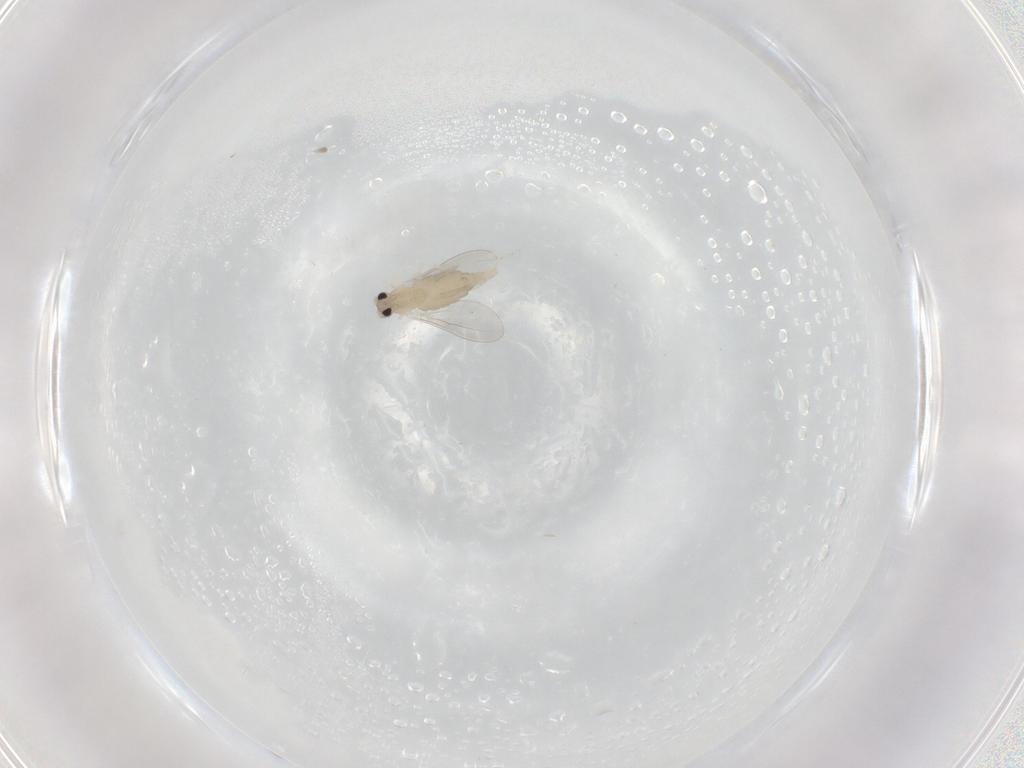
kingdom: Animalia
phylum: Arthropoda
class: Insecta
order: Diptera
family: Cecidomyiidae
